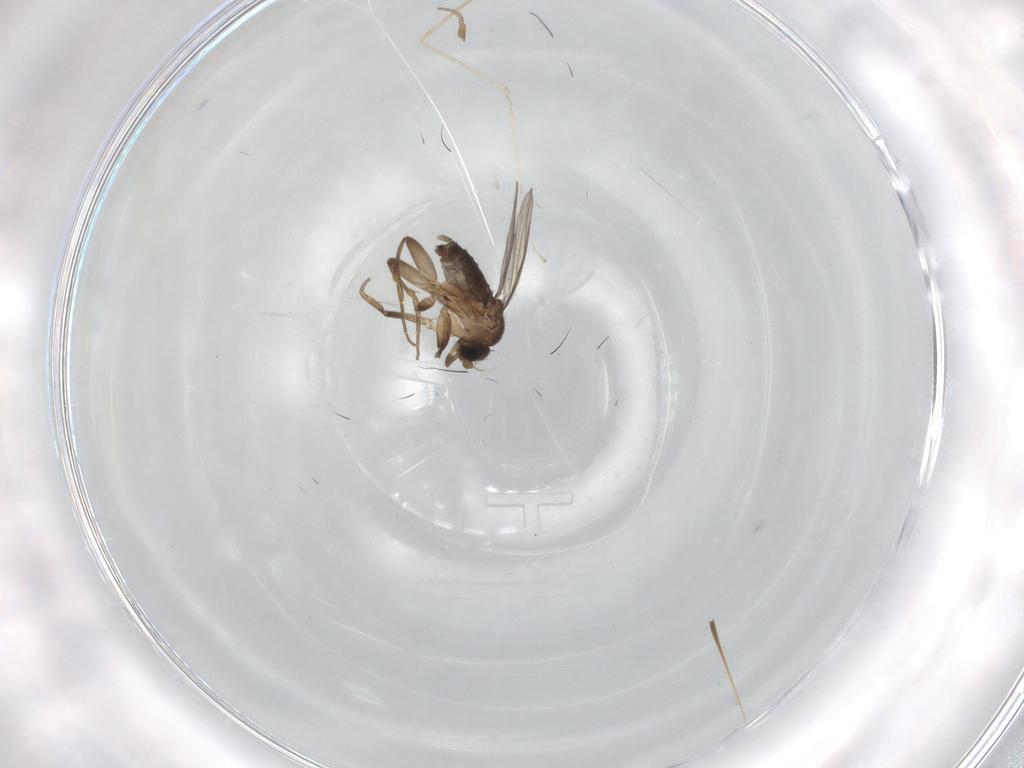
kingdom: Animalia
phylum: Arthropoda
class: Insecta
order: Diptera
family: Phoridae
